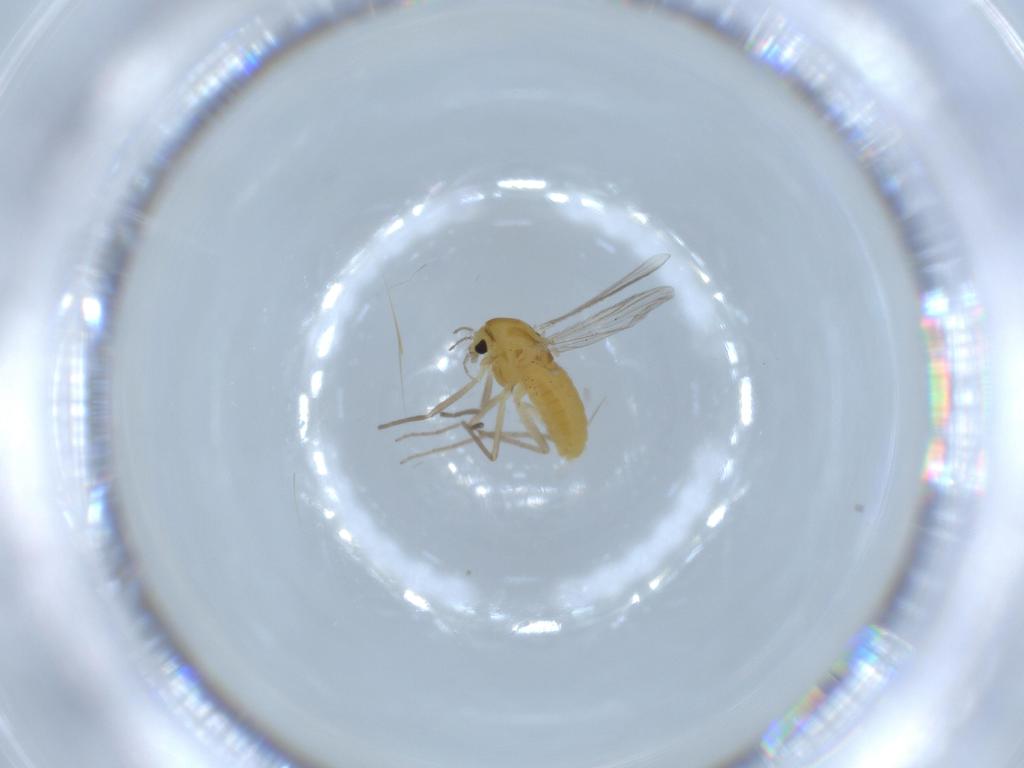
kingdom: Animalia
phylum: Arthropoda
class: Insecta
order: Diptera
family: Chironomidae
